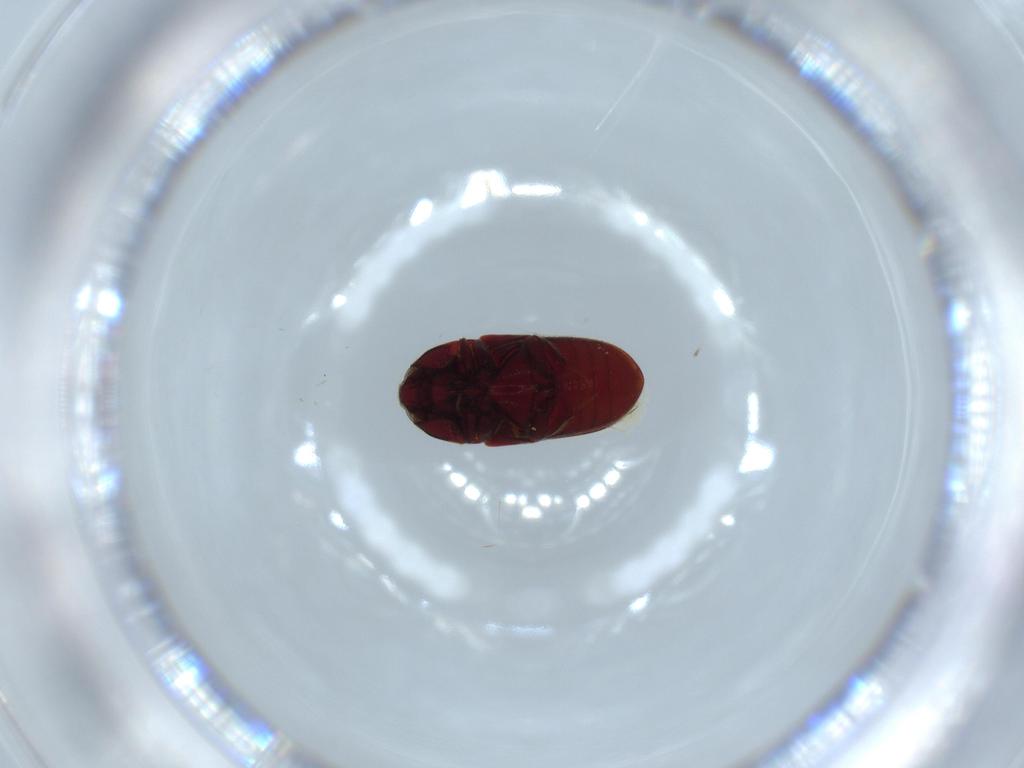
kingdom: Animalia
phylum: Arthropoda
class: Insecta
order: Coleoptera
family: Throscidae
